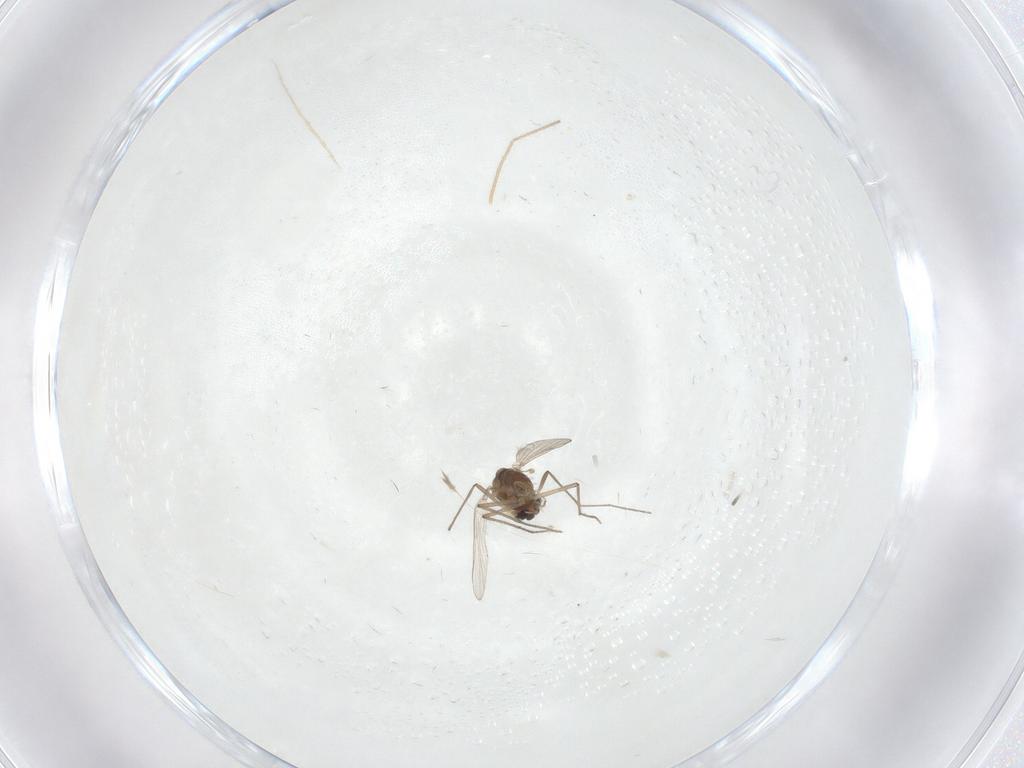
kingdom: Animalia
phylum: Arthropoda
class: Insecta
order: Diptera
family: Chironomidae
